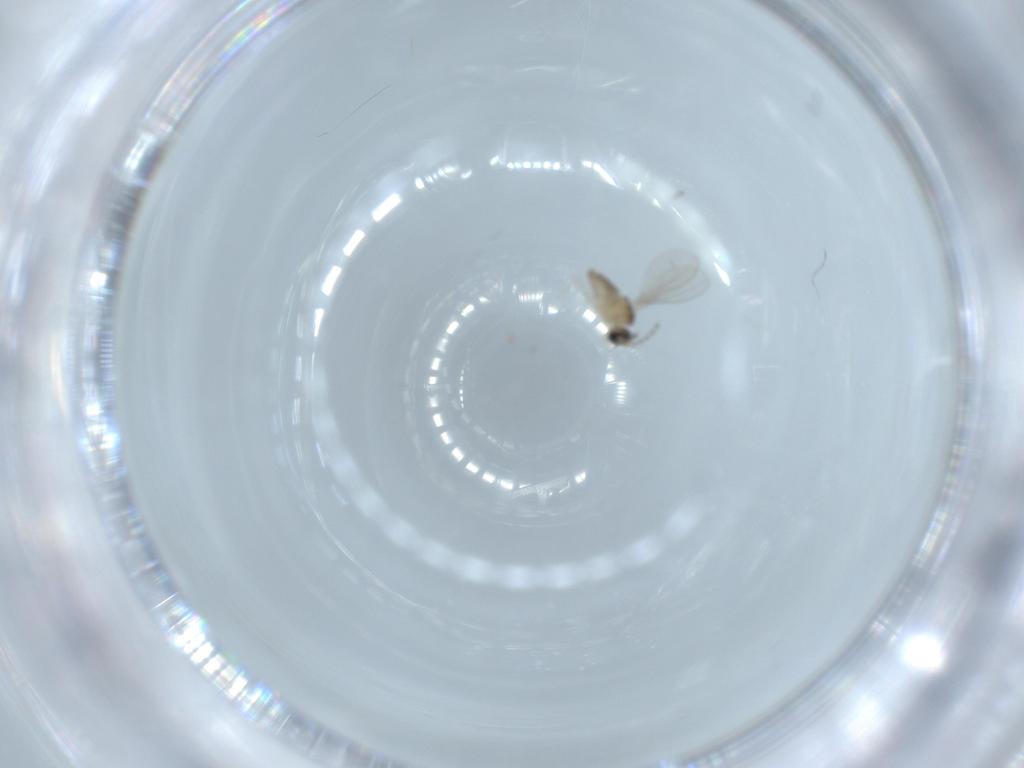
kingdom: Animalia
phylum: Arthropoda
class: Insecta
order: Diptera
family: Cecidomyiidae
